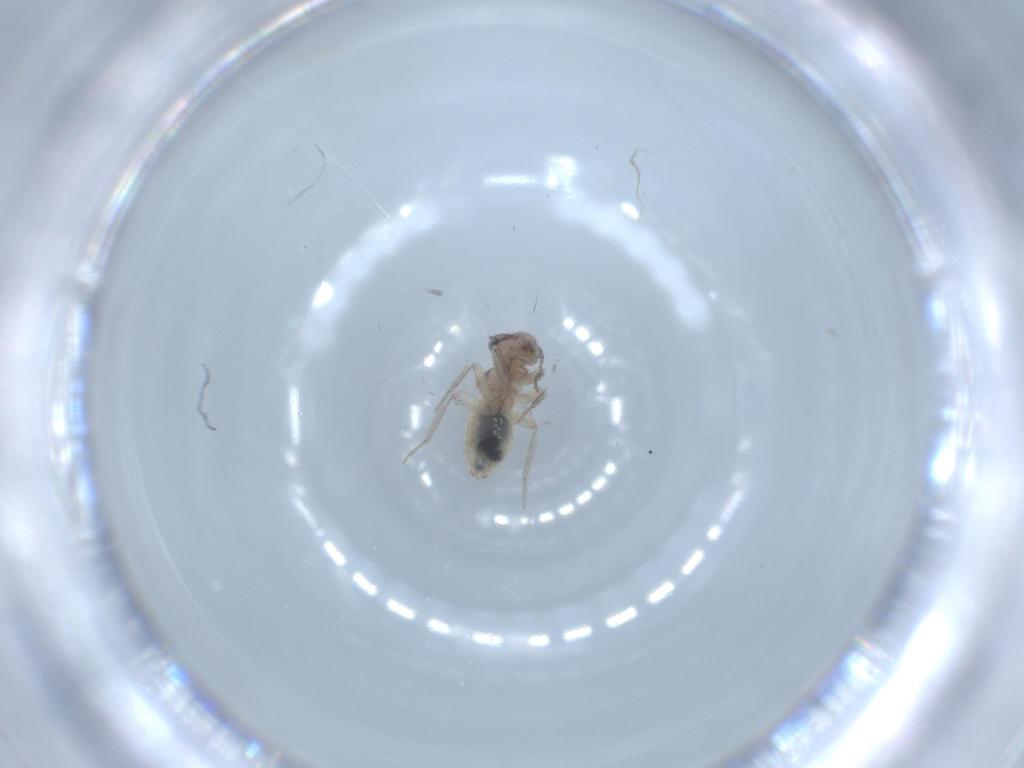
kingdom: Animalia
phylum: Arthropoda
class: Insecta
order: Psocodea
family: Lepidopsocidae
